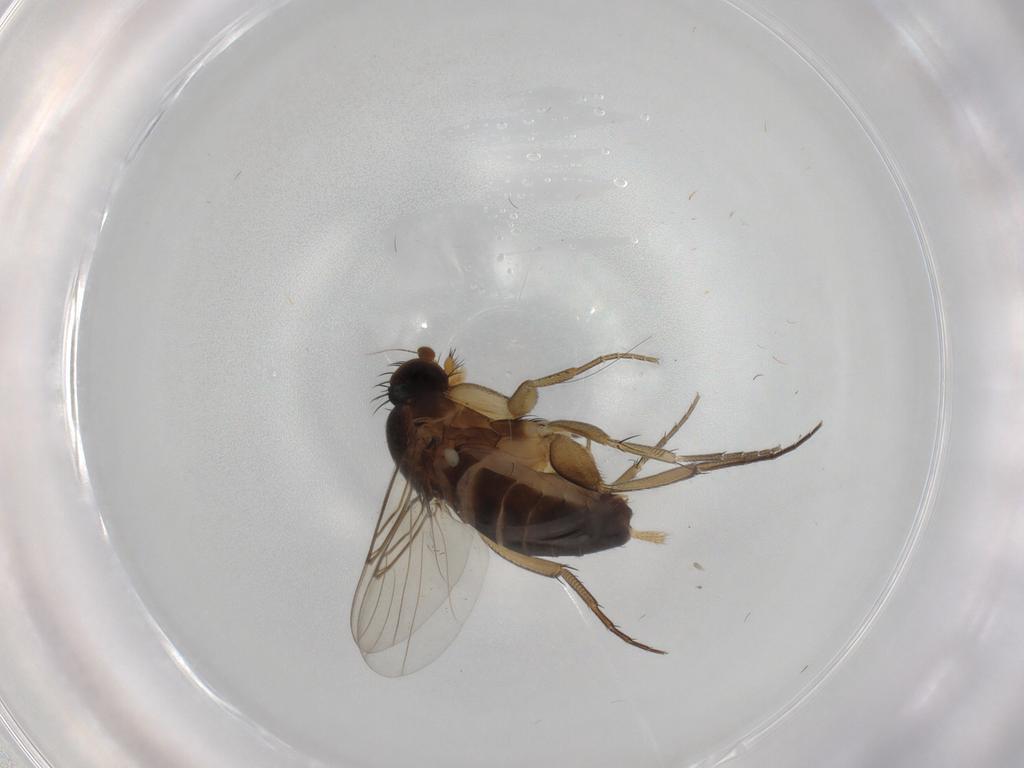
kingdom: Animalia
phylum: Arthropoda
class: Insecta
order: Diptera
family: Phoridae
